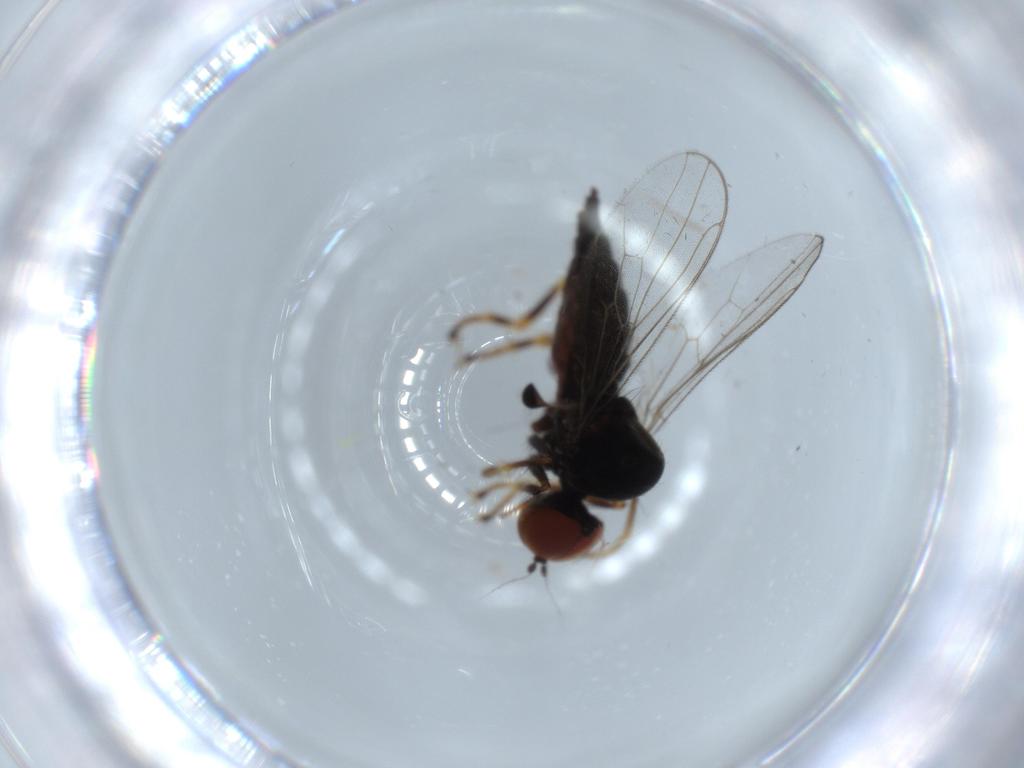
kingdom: Animalia
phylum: Arthropoda
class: Insecta
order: Diptera
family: Hybotidae
